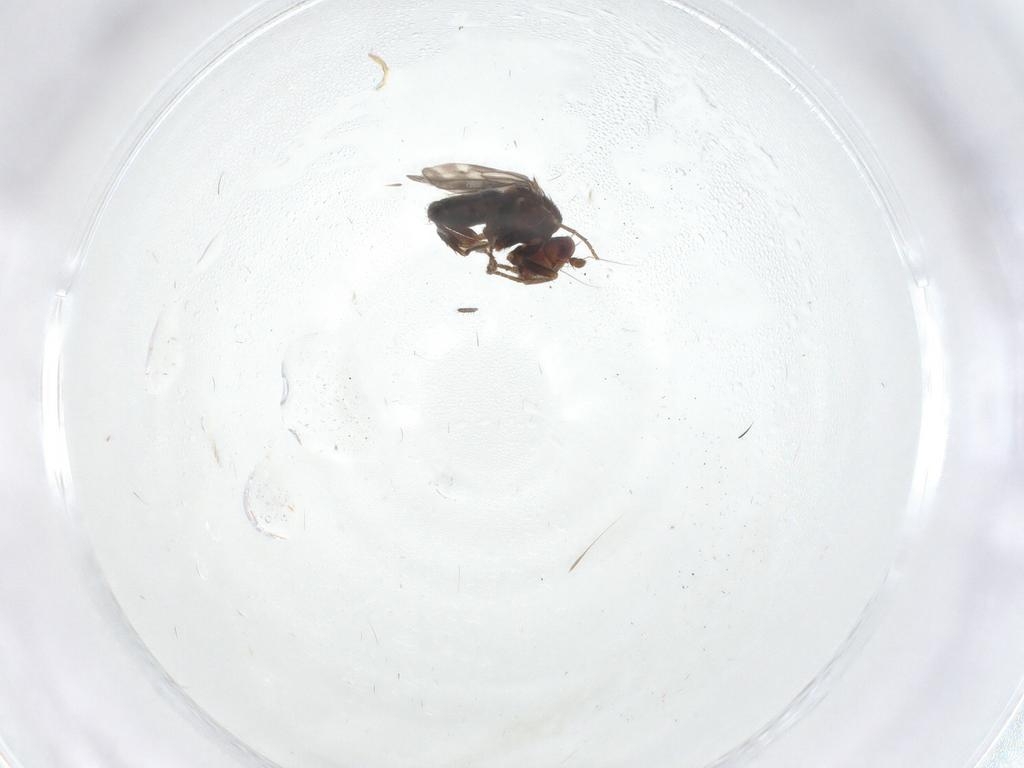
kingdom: Animalia
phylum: Arthropoda
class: Insecta
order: Diptera
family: Sphaeroceridae
